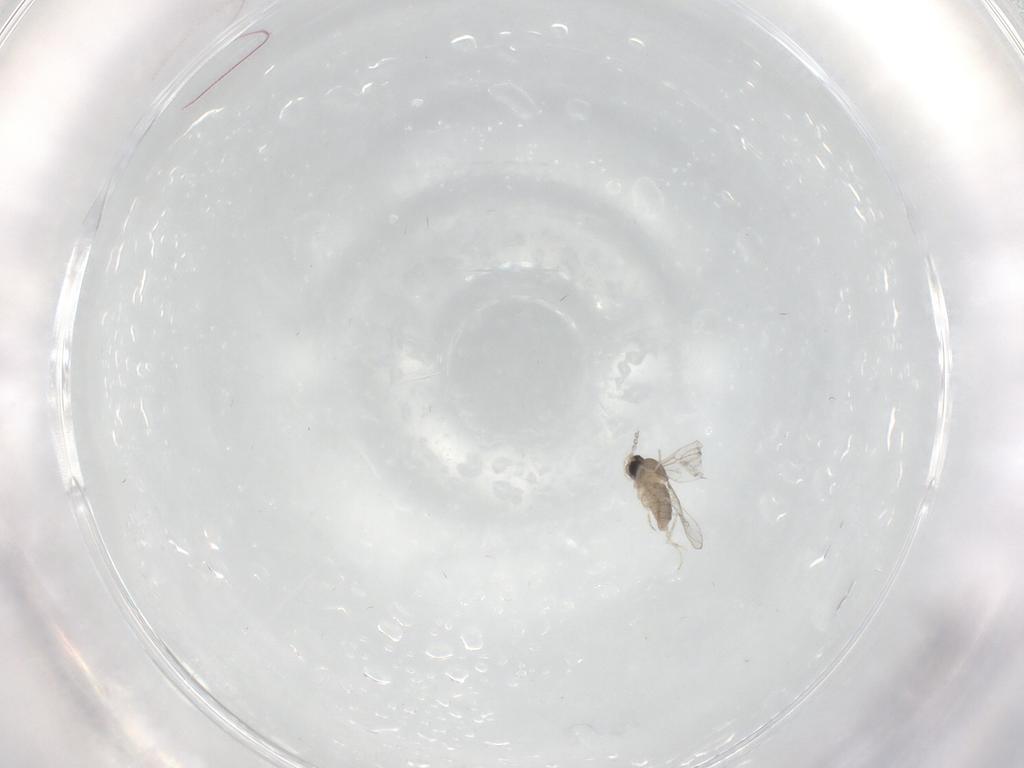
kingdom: Animalia
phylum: Arthropoda
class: Insecta
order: Diptera
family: Cecidomyiidae
